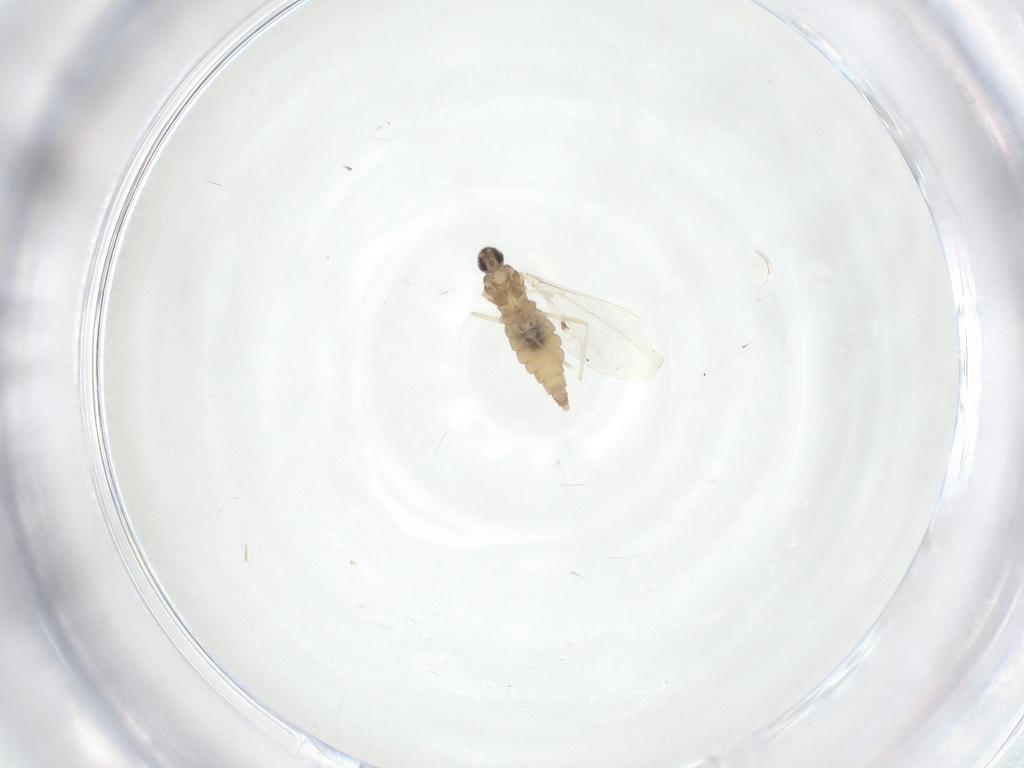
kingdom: Animalia
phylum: Arthropoda
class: Insecta
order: Diptera
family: Cecidomyiidae
